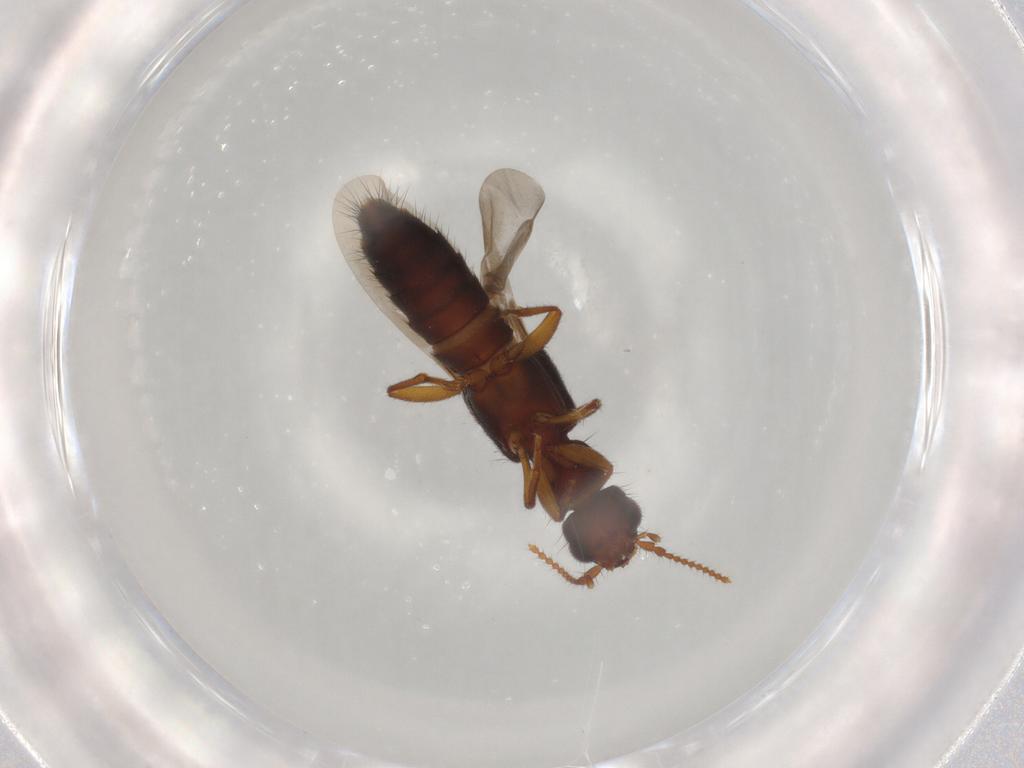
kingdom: Animalia
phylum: Arthropoda
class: Insecta
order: Coleoptera
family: Staphylinidae
